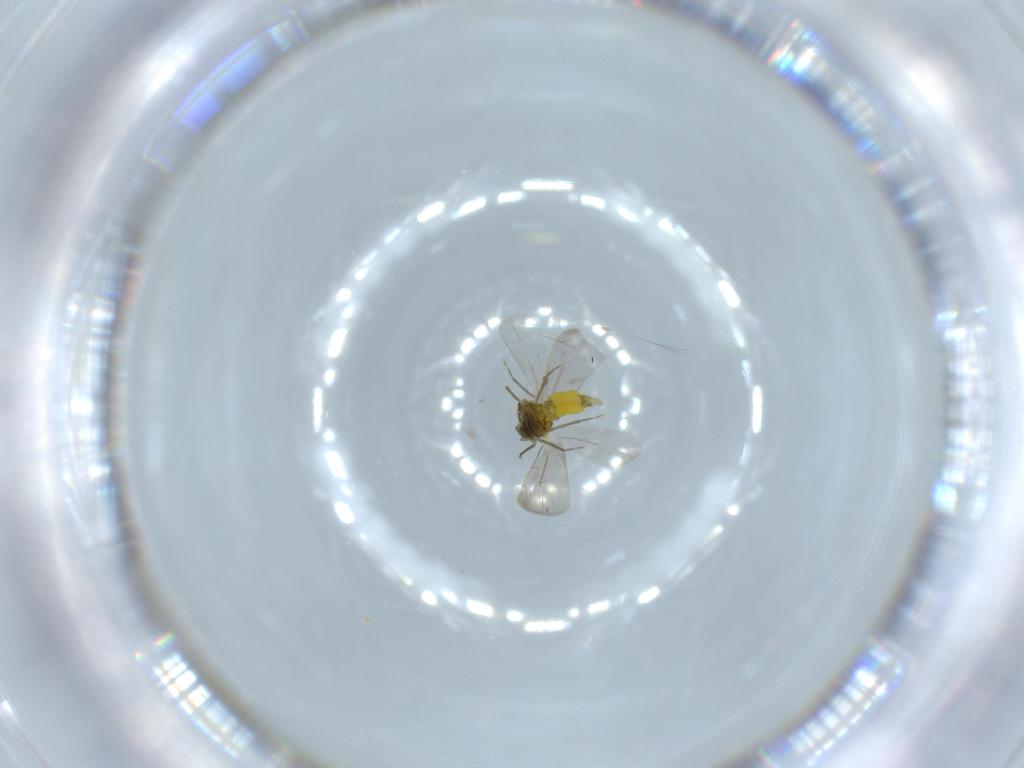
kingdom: Animalia
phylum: Arthropoda
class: Insecta
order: Hemiptera
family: Aleyrodidae
